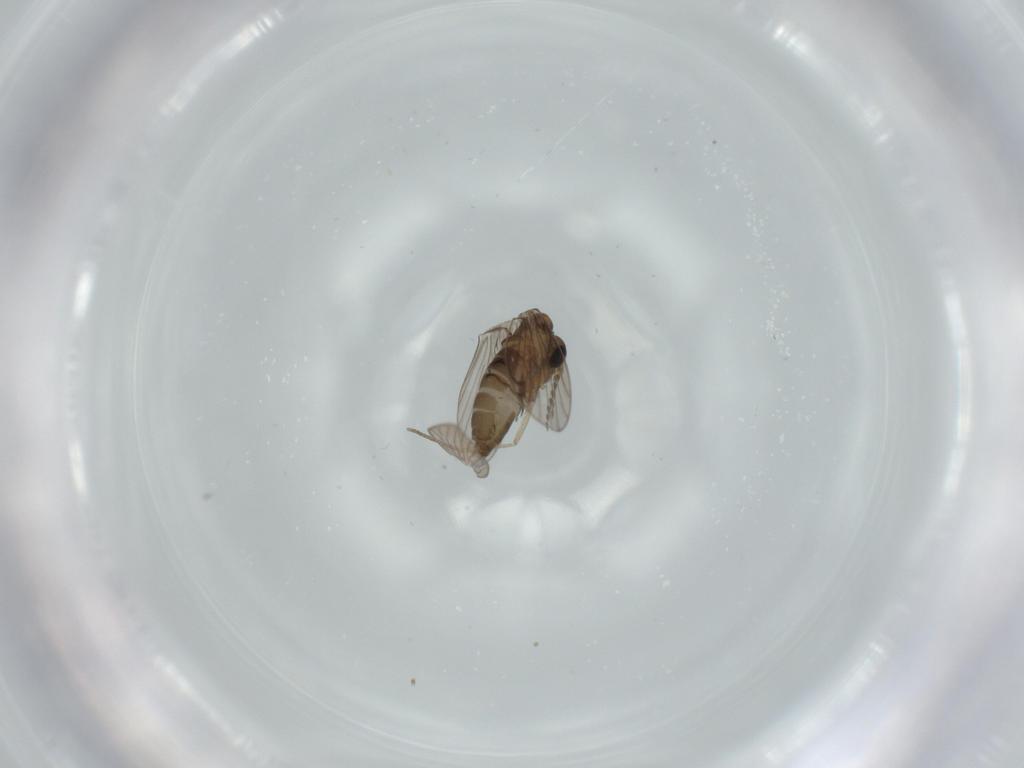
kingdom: Animalia
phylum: Arthropoda
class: Insecta
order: Diptera
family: Psychodidae
